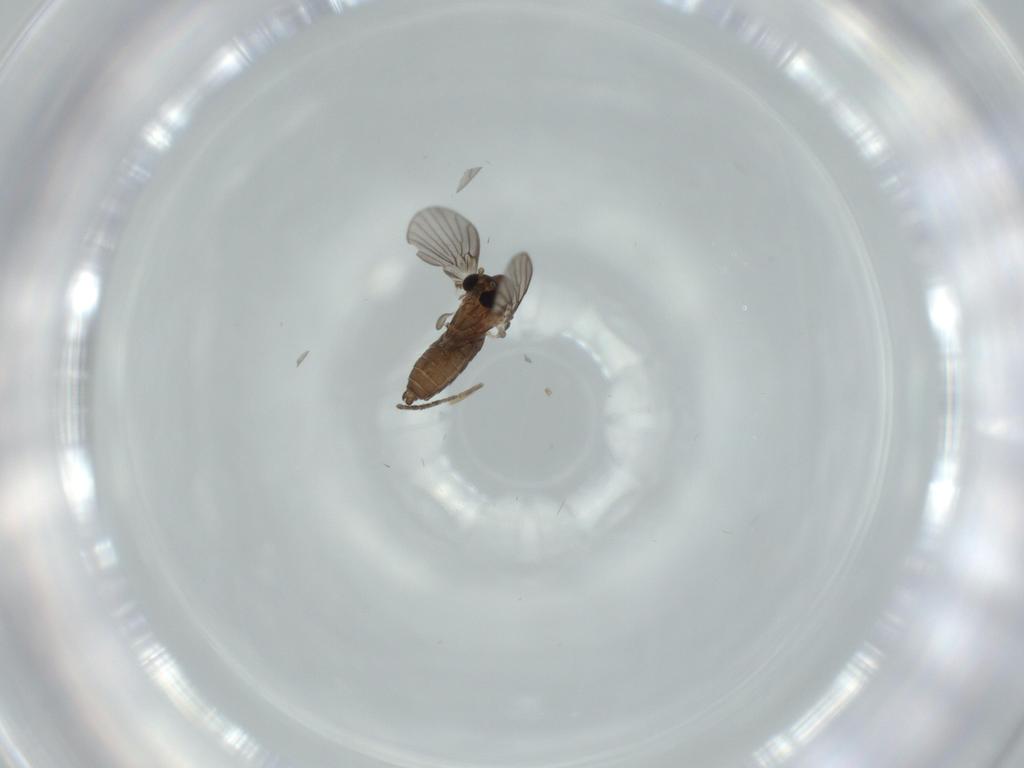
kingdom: Animalia
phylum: Arthropoda
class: Insecta
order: Diptera
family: Psychodidae
